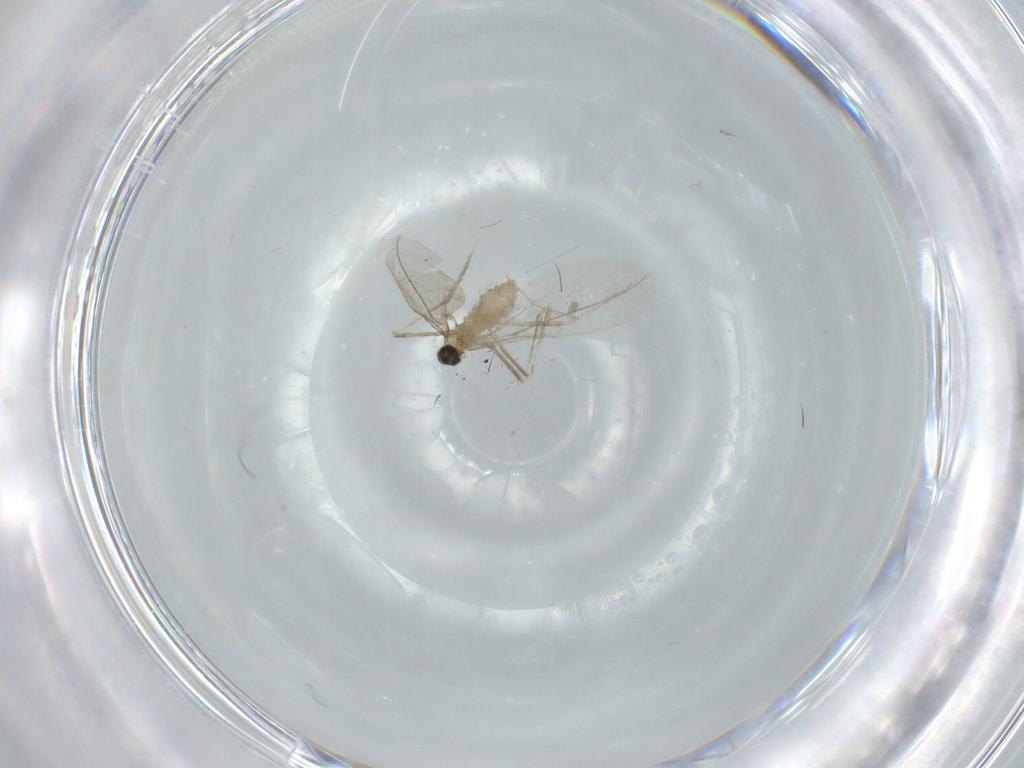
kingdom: Animalia
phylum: Arthropoda
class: Insecta
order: Diptera
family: Cecidomyiidae
